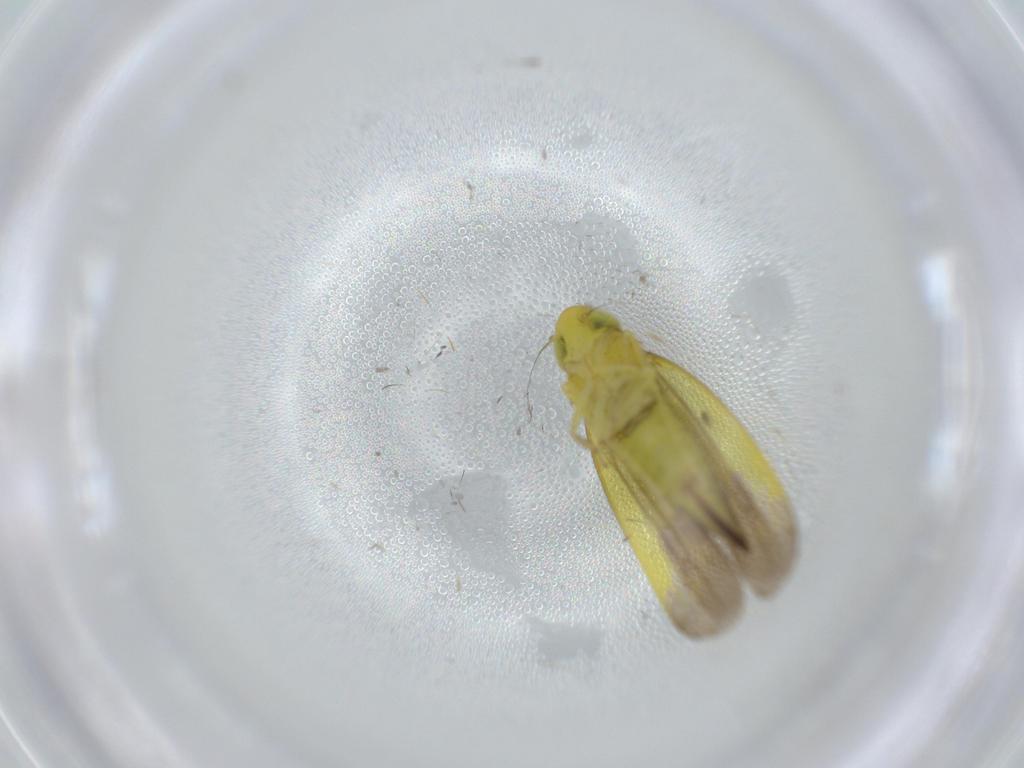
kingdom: Animalia
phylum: Arthropoda
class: Insecta
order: Hemiptera
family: Cicadellidae
